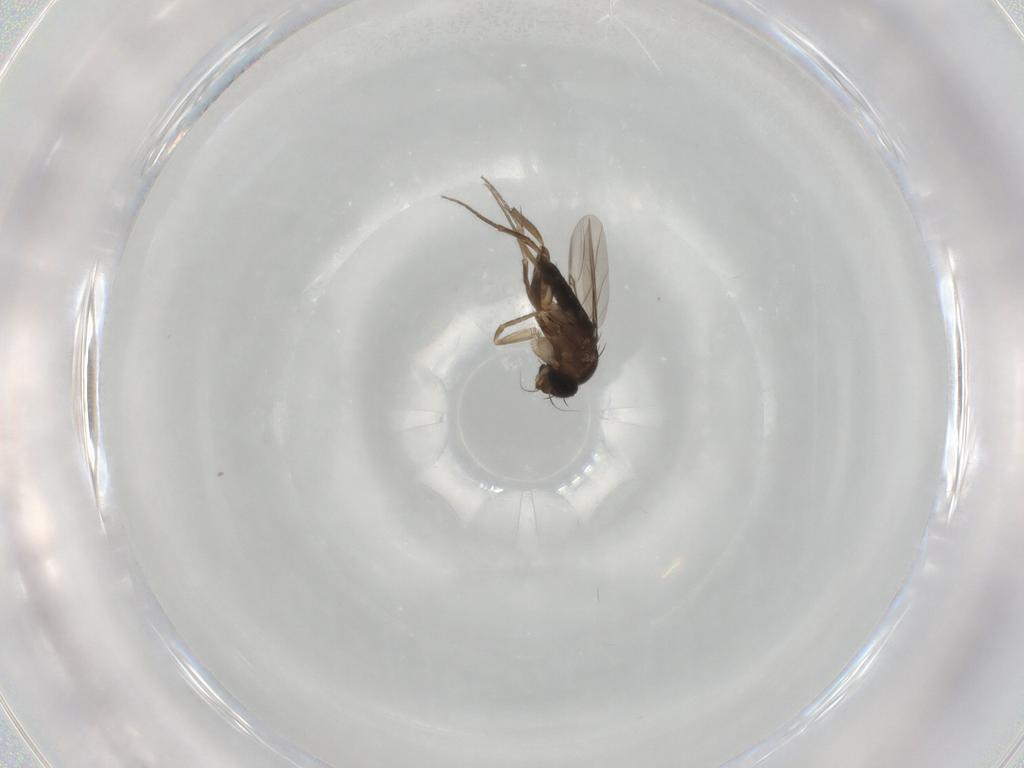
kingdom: Animalia
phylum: Arthropoda
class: Insecta
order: Diptera
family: Phoridae
